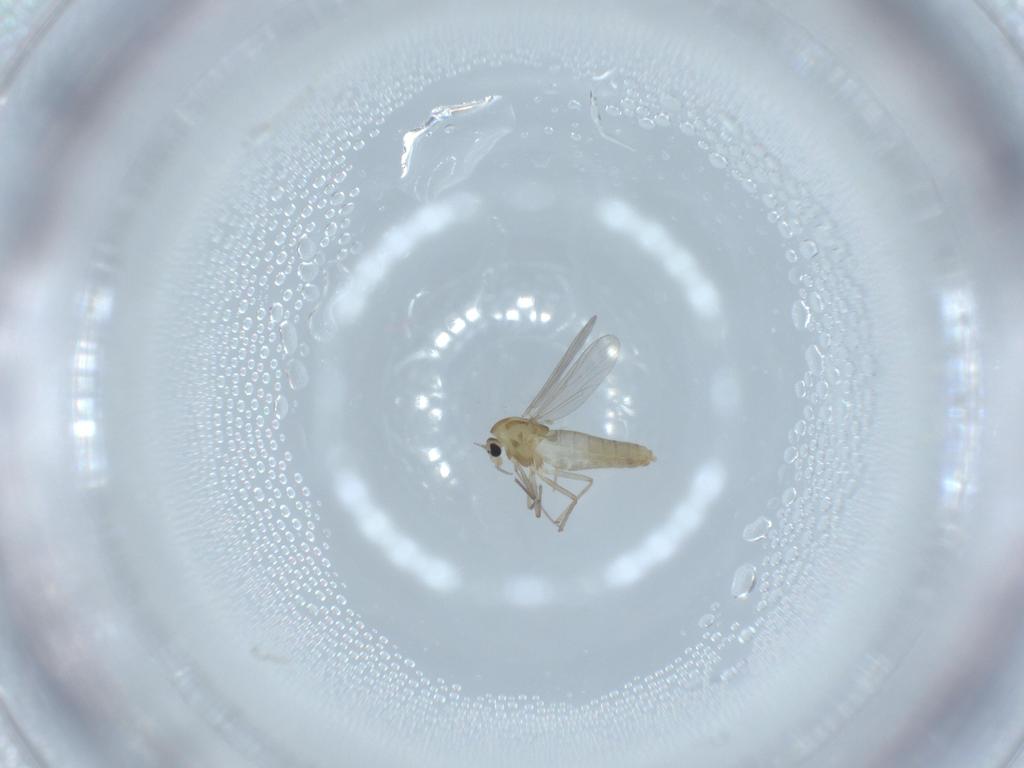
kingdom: Animalia
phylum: Arthropoda
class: Insecta
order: Diptera
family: Chironomidae
